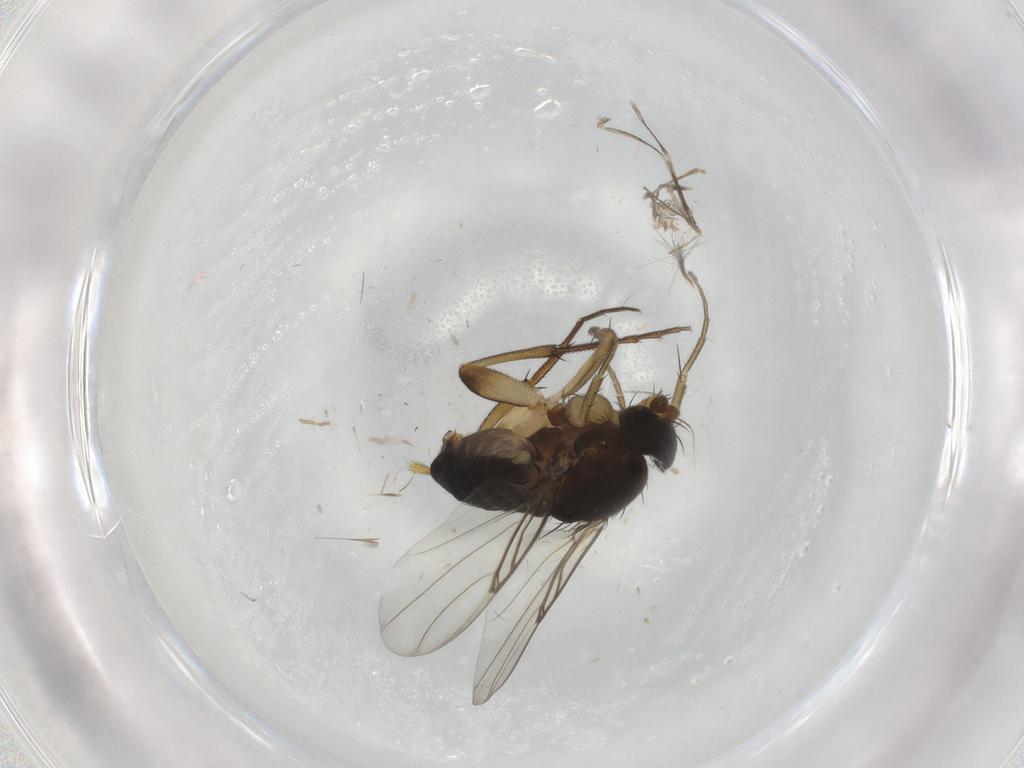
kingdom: Animalia
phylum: Arthropoda
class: Insecta
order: Diptera
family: Phoridae
